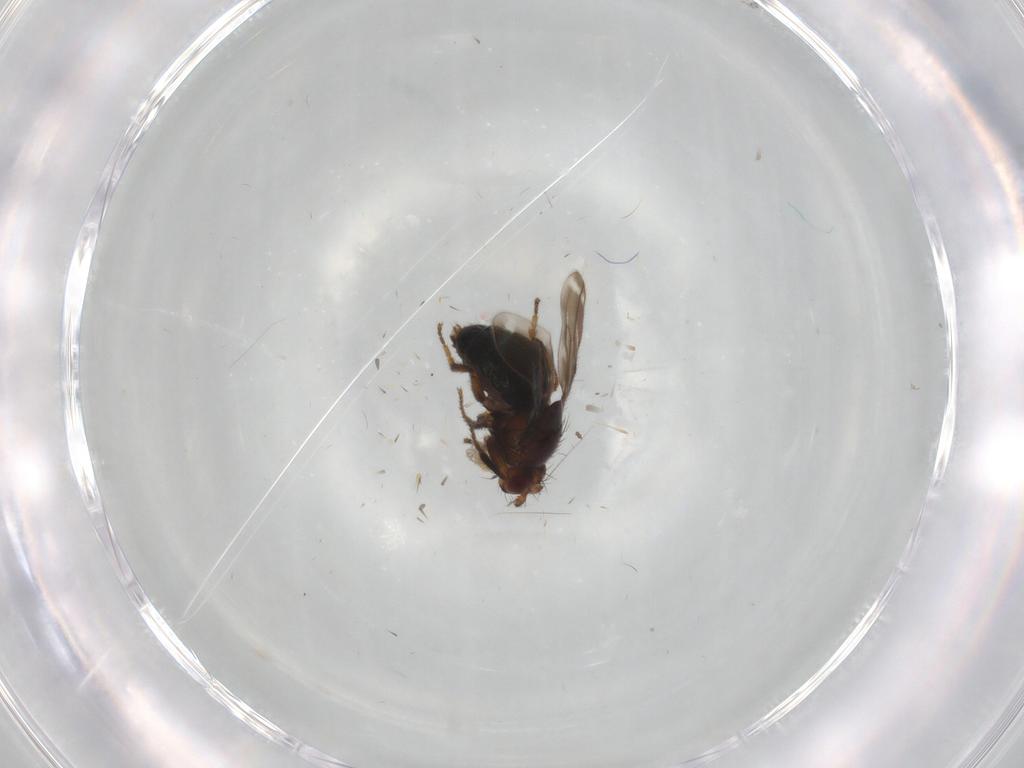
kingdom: Animalia
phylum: Arthropoda
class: Insecta
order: Diptera
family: Sphaeroceridae
